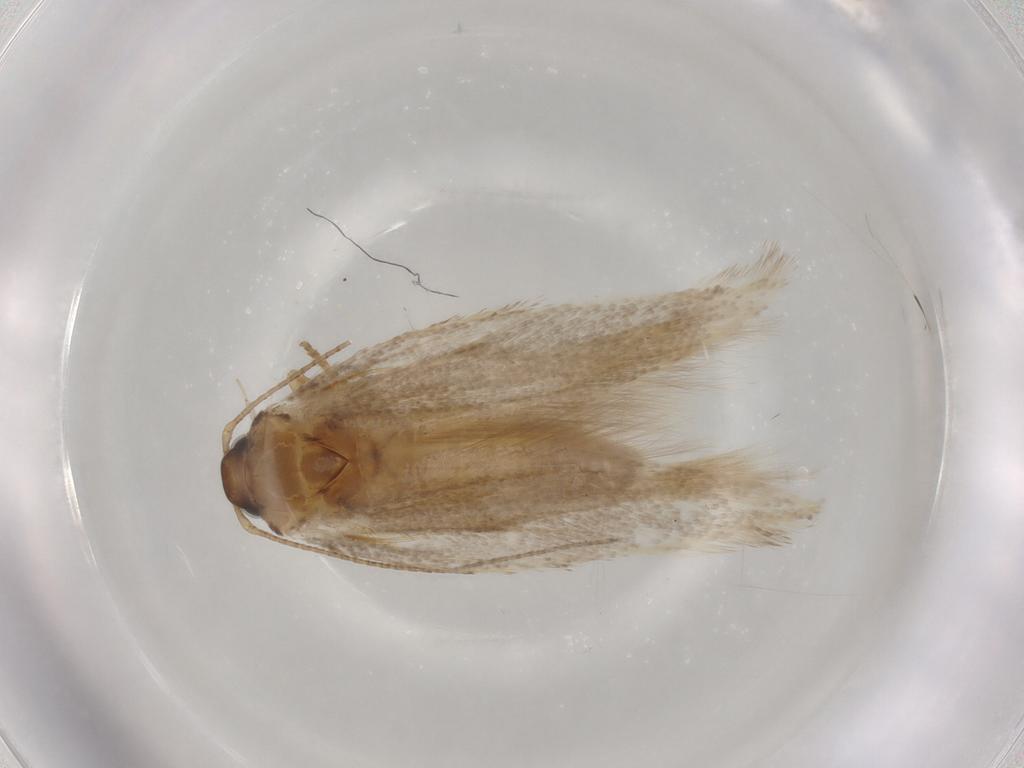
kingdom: Animalia
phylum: Arthropoda
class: Insecta
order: Lepidoptera
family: Gelechiidae
